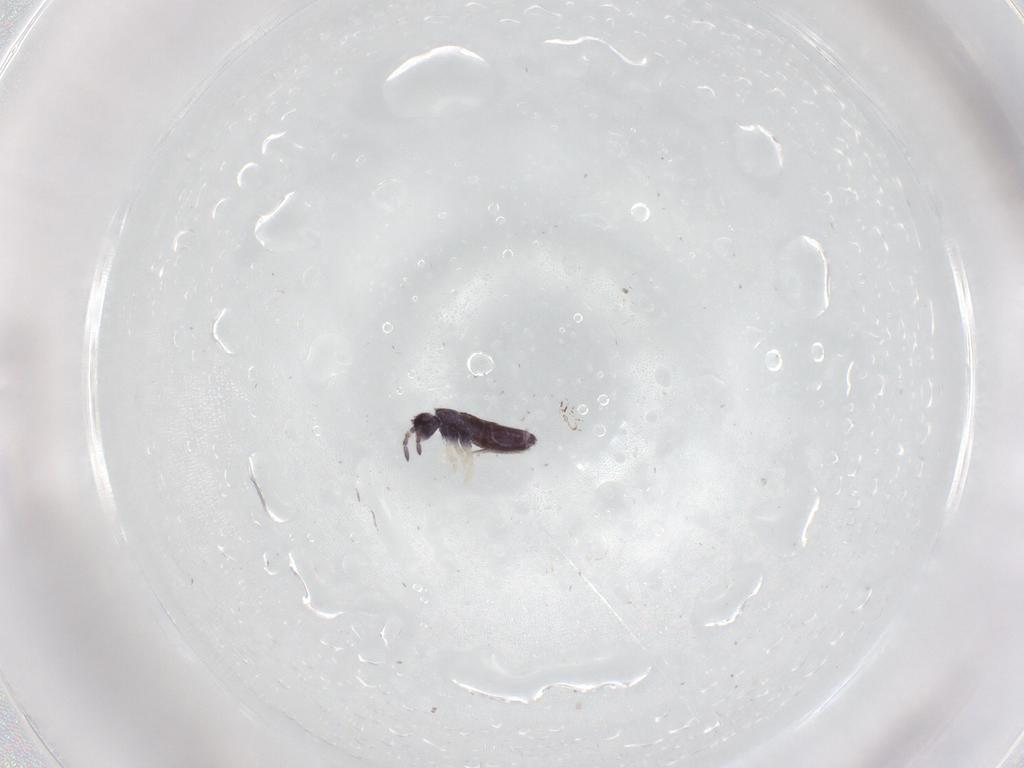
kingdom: Animalia
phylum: Arthropoda
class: Collembola
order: Entomobryomorpha
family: Entomobryidae
